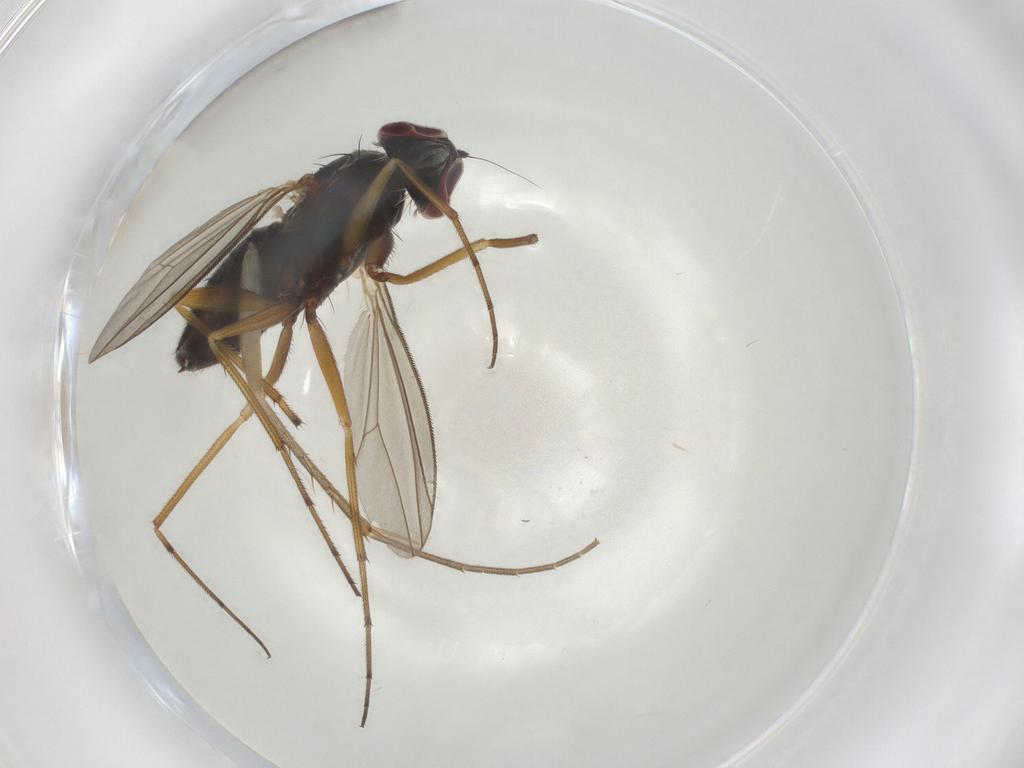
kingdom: Animalia
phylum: Arthropoda
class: Insecta
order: Diptera
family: Dolichopodidae
